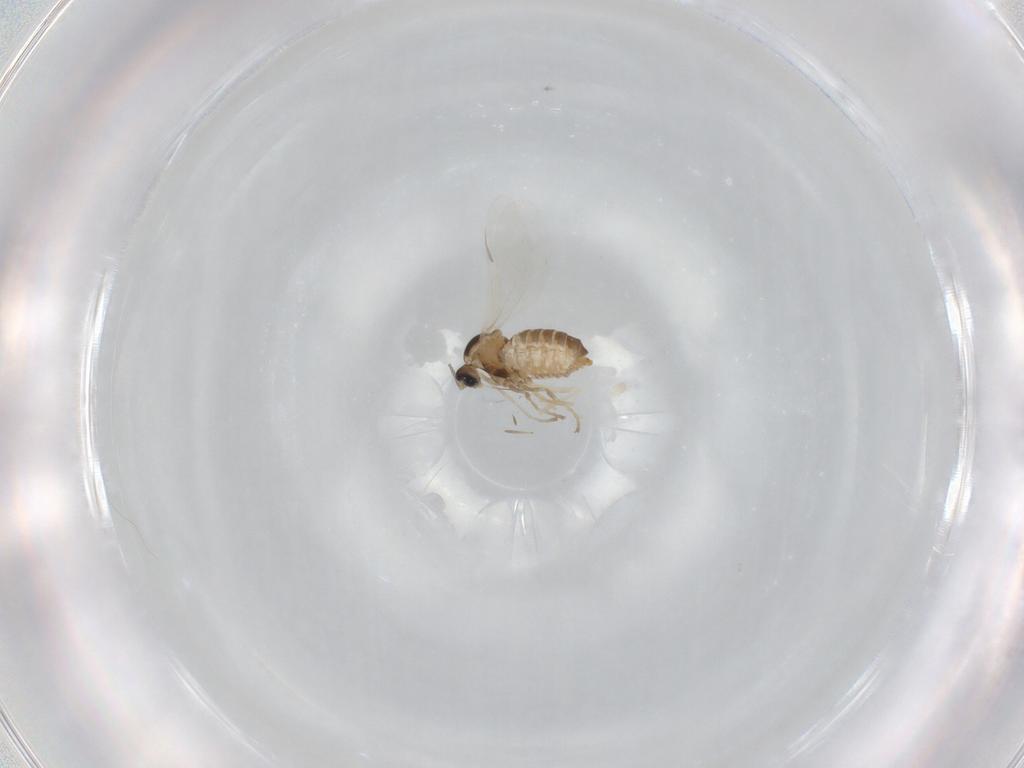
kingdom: Animalia
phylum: Arthropoda
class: Insecta
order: Diptera
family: Cecidomyiidae
